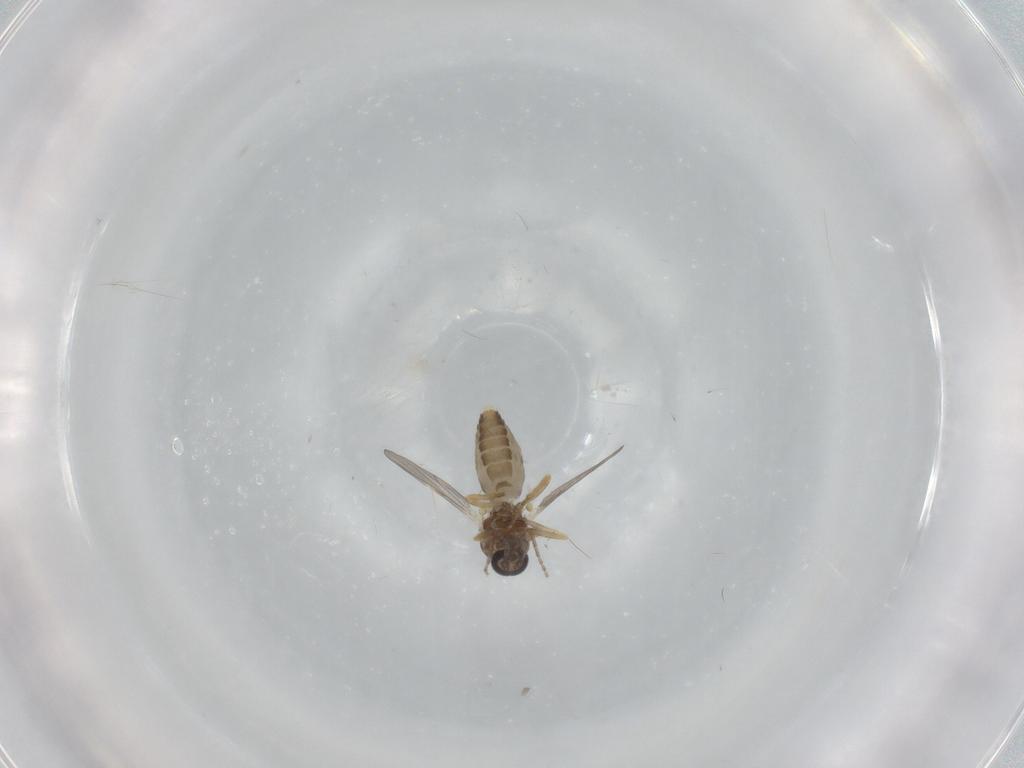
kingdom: Animalia
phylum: Arthropoda
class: Insecta
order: Diptera
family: Ceratopogonidae
